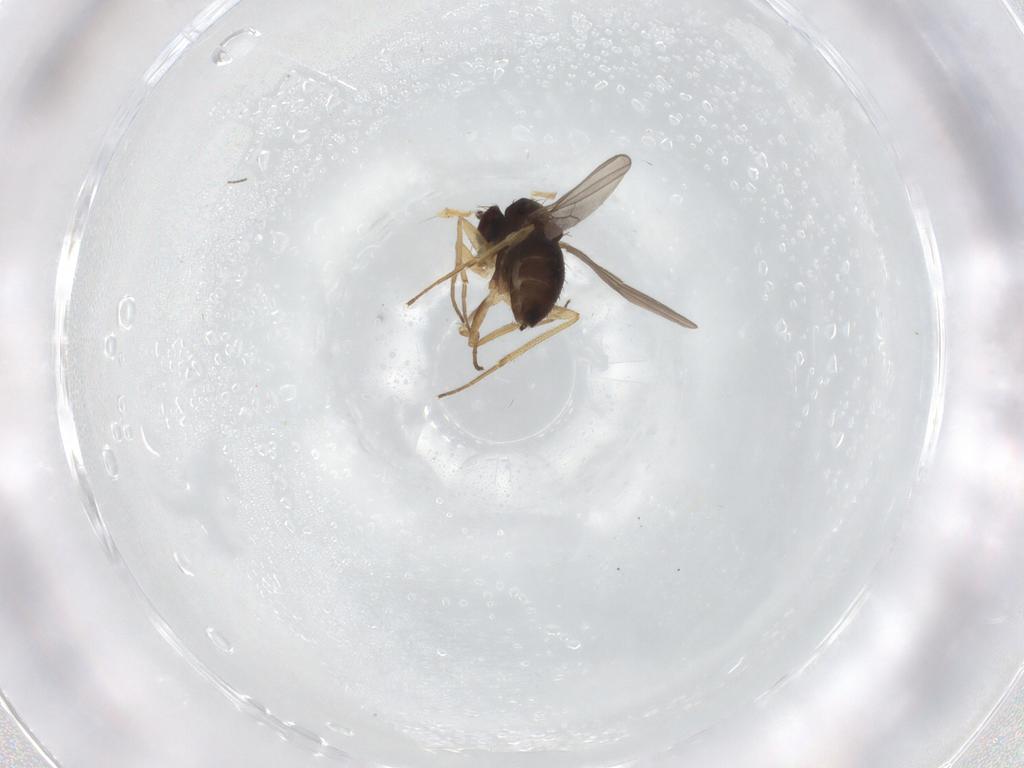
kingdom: Animalia
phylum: Arthropoda
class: Insecta
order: Diptera
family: Dolichopodidae
